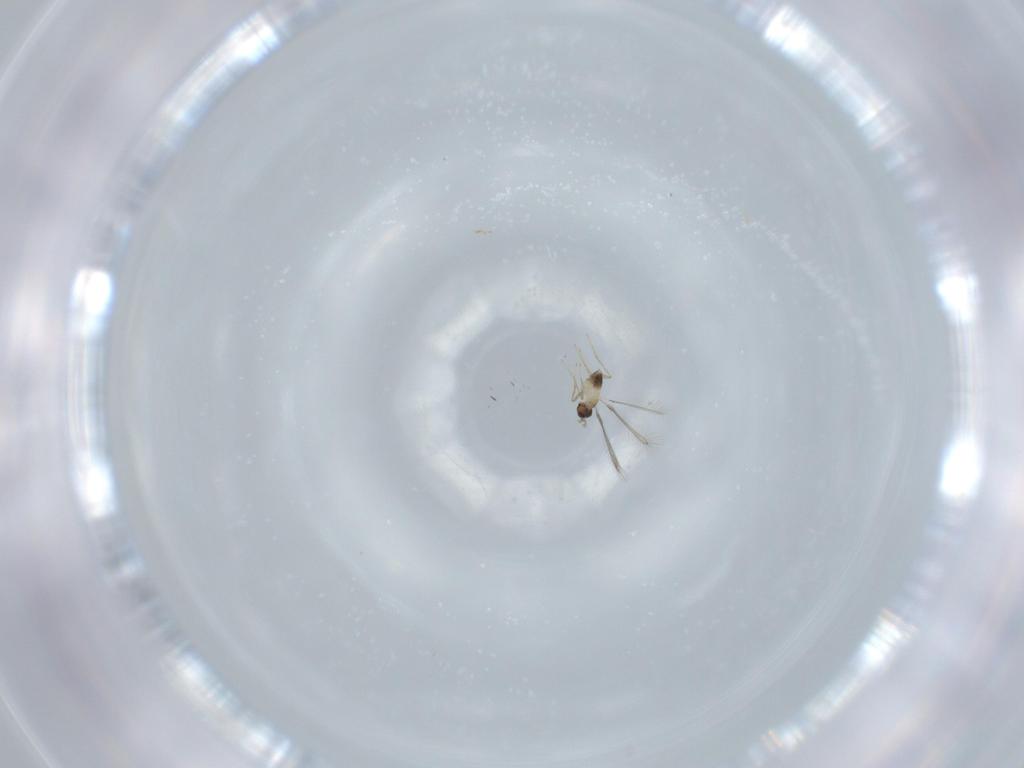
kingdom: Animalia
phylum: Arthropoda
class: Insecta
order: Hymenoptera
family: Mymaridae
